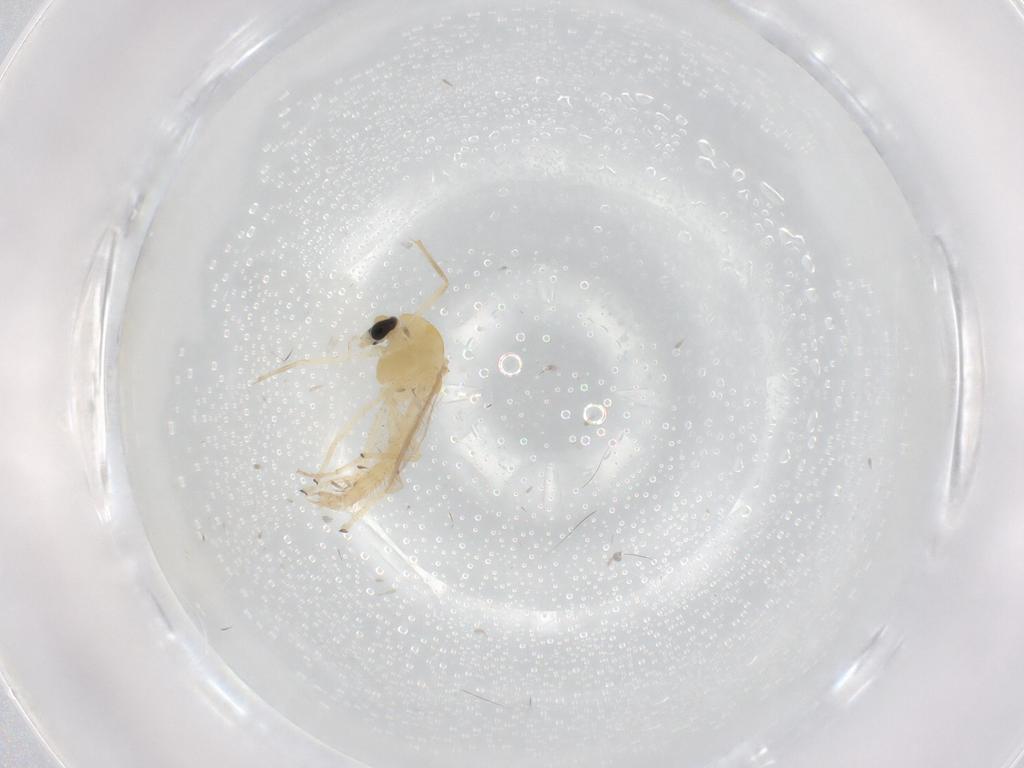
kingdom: Animalia
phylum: Arthropoda
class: Insecta
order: Diptera
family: Chironomidae
